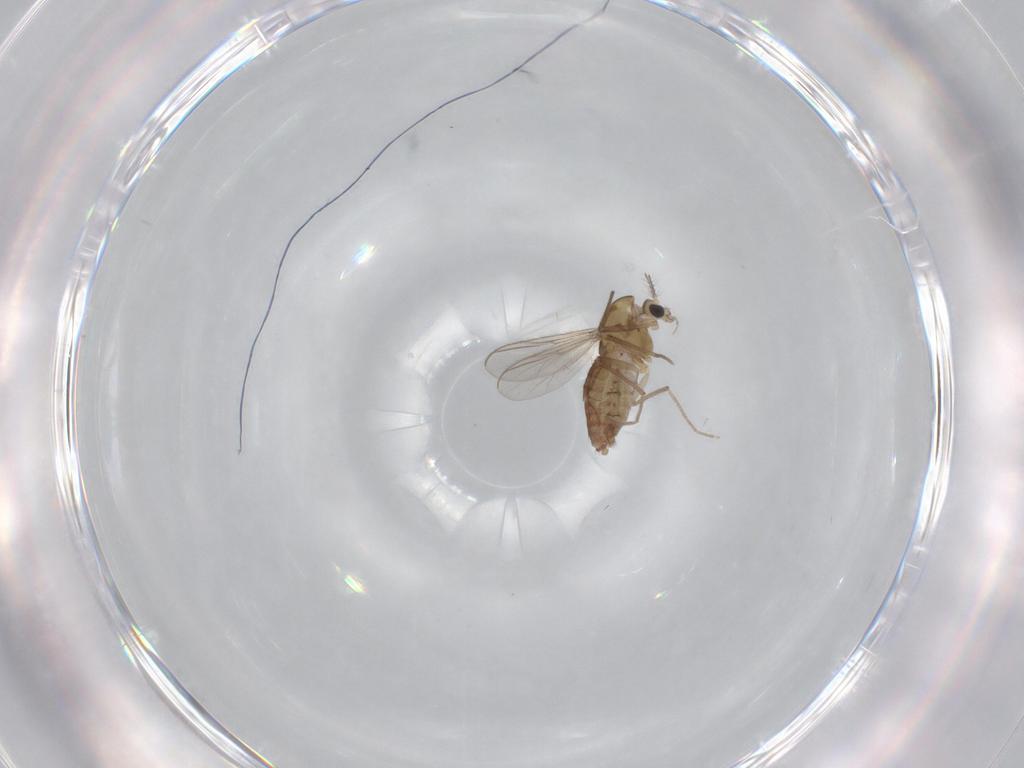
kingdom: Animalia
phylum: Arthropoda
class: Insecta
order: Diptera
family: Chironomidae
